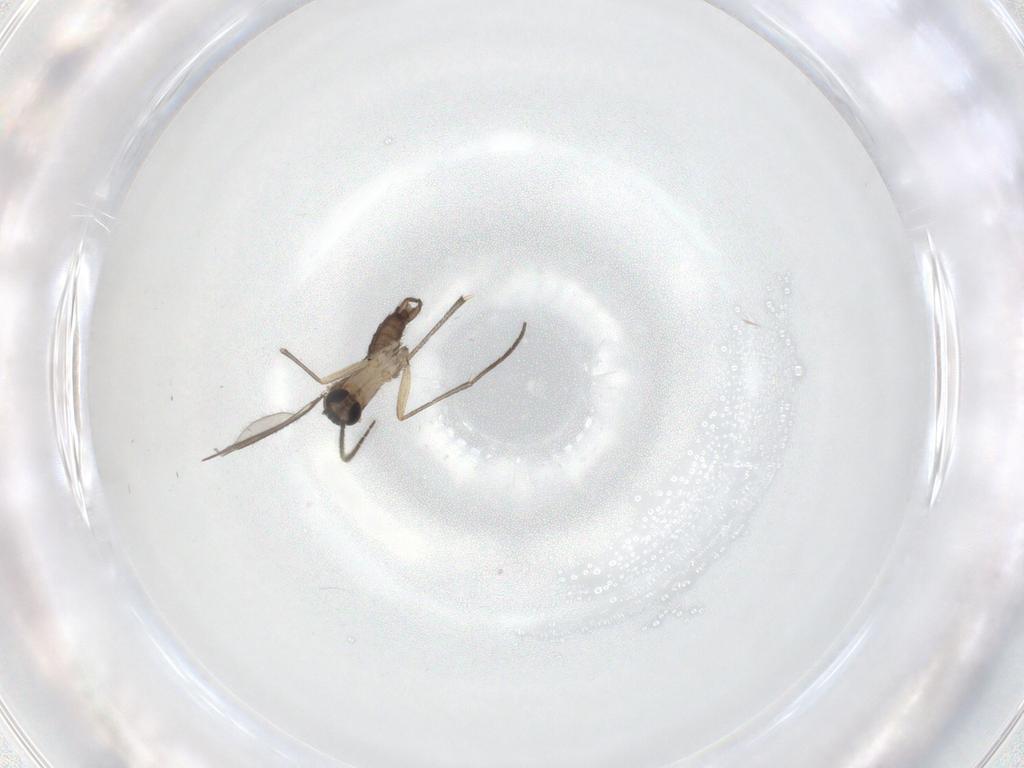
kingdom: Animalia
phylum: Arthropoda
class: Insecta
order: Diptera
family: Sciaridae
